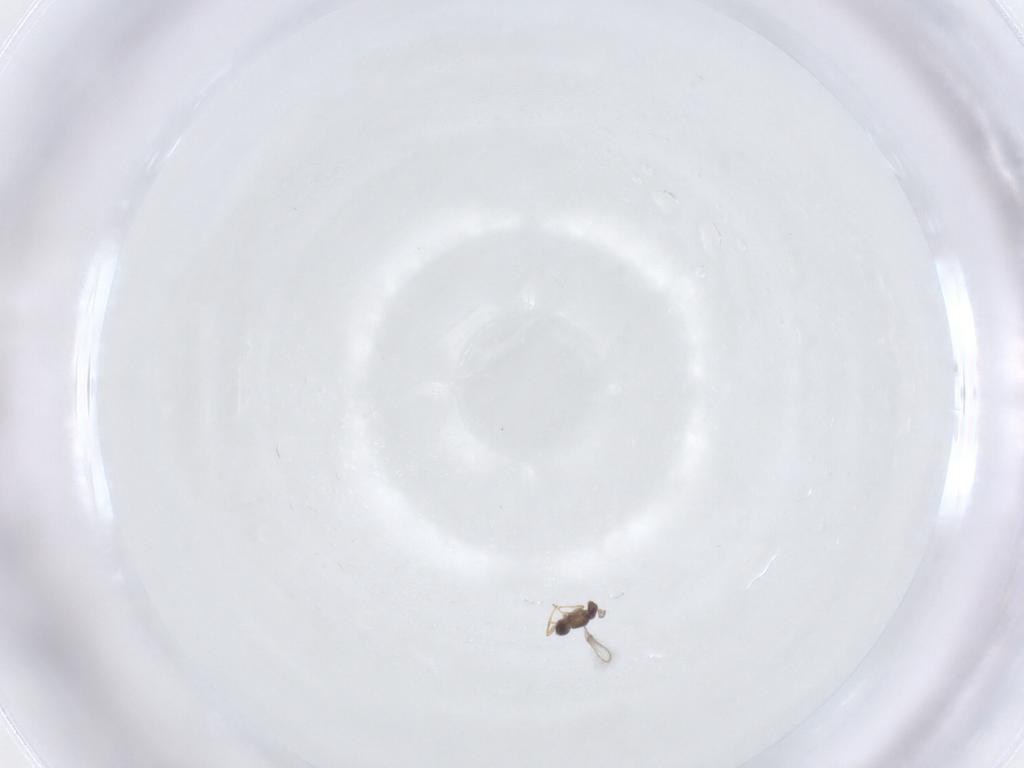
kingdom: Animalia
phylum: Arthropoda
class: Insecta
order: Hymenoptera
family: Mymaridae
